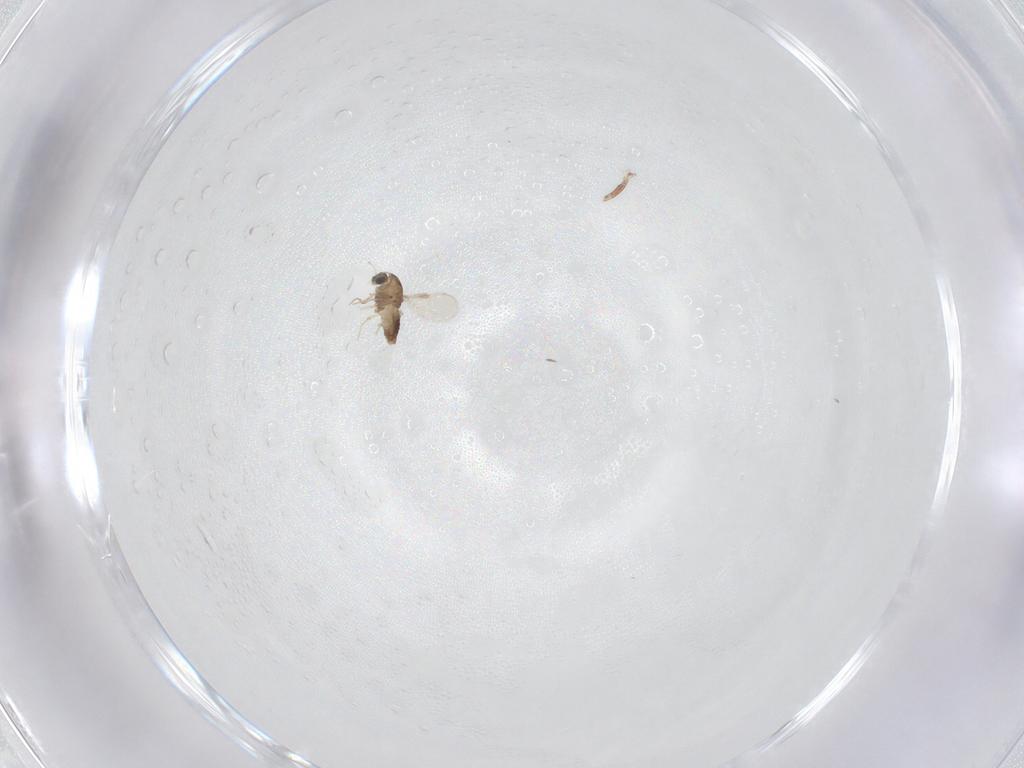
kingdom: Animalia
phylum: Arthropoda
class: Insecta
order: Diptera
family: Chironomidae
